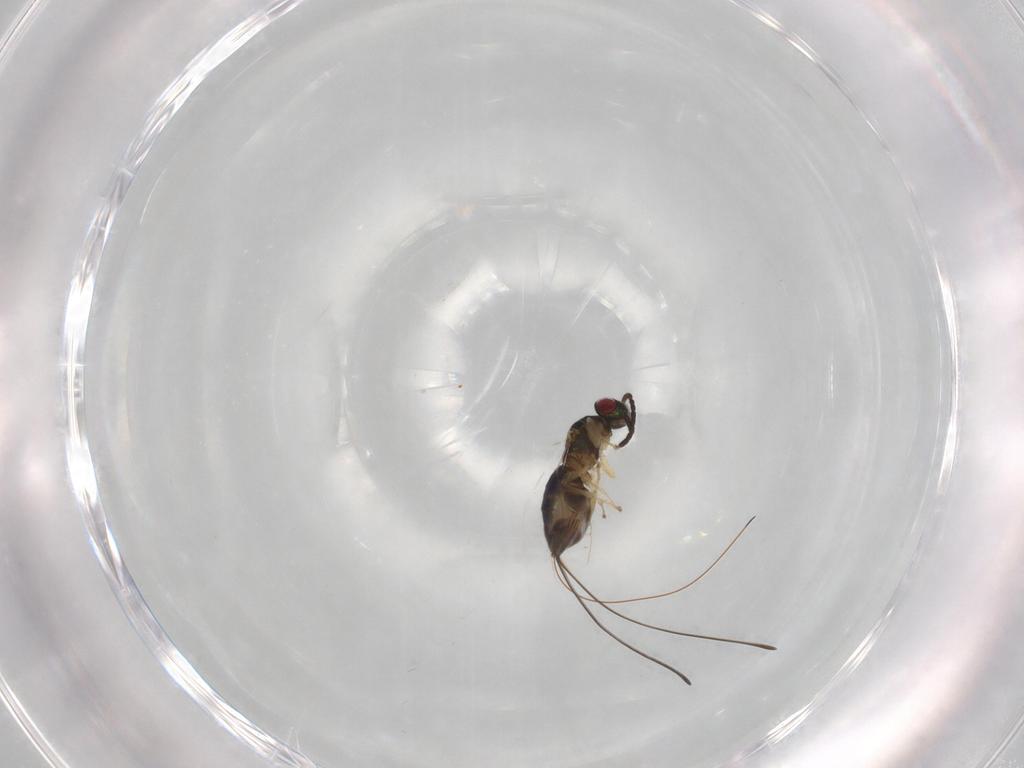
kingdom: Animalia
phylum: Arthropoda
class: Insecta
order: Hymenoptera
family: Pteromalidae
